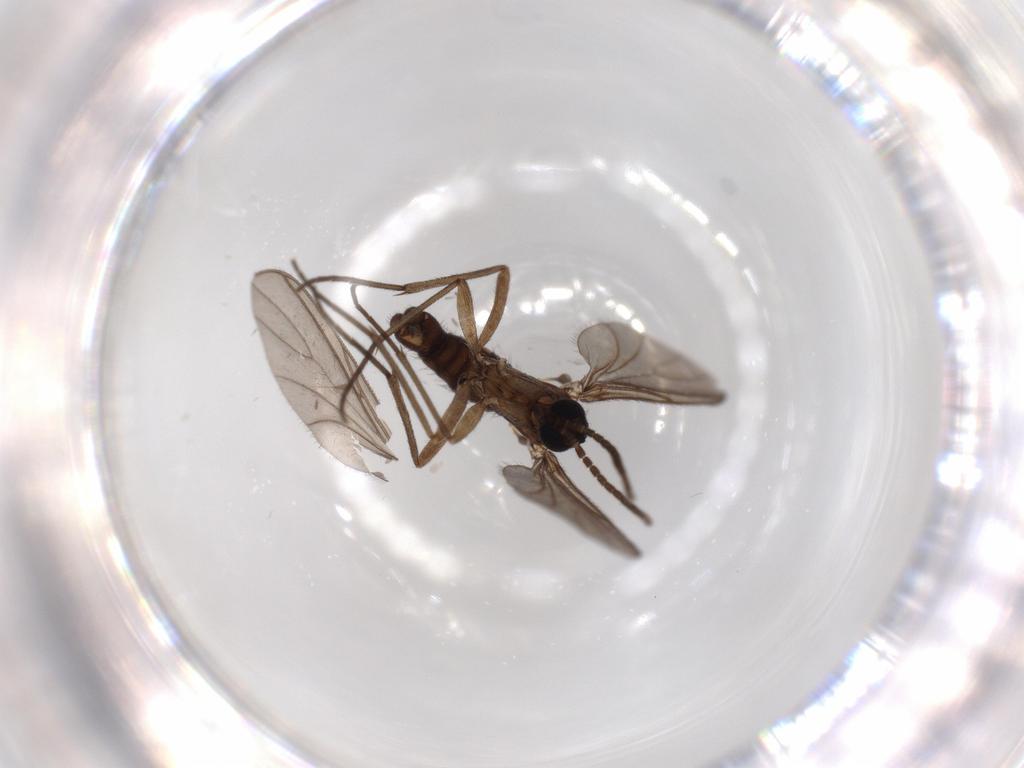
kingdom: Animalia
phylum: Arthropoda
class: Insecta
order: Diptera
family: Sciaridae
